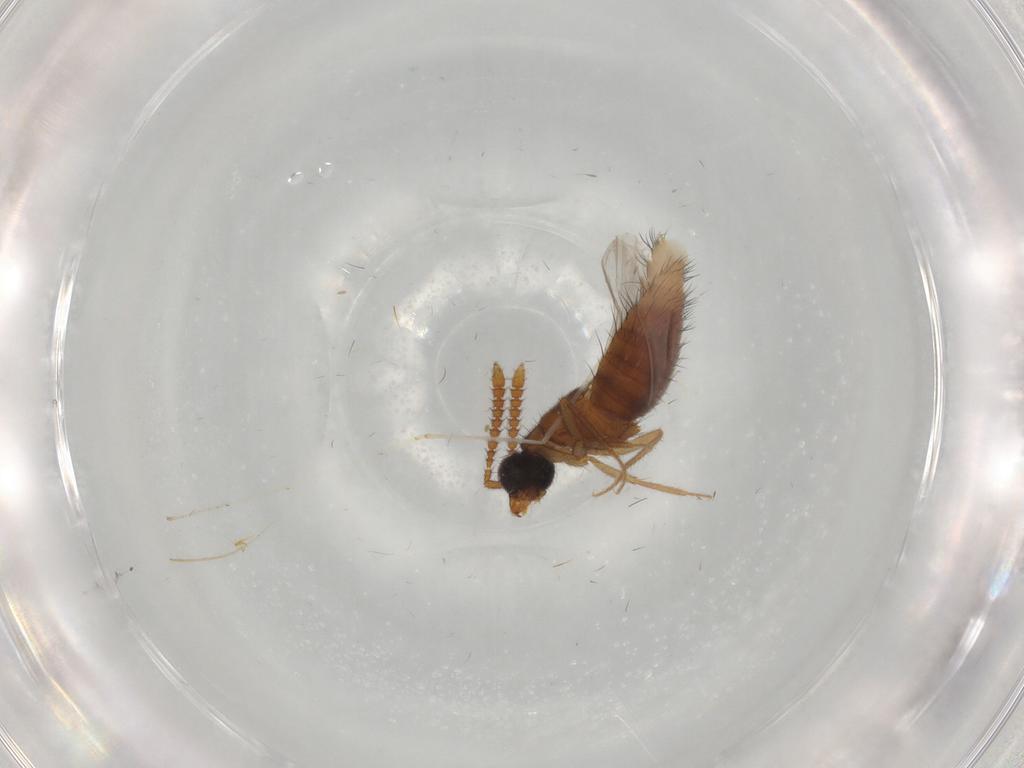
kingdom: Animalia
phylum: Arthropoda
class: Insecta
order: Coleoptera
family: Staphylinidae
